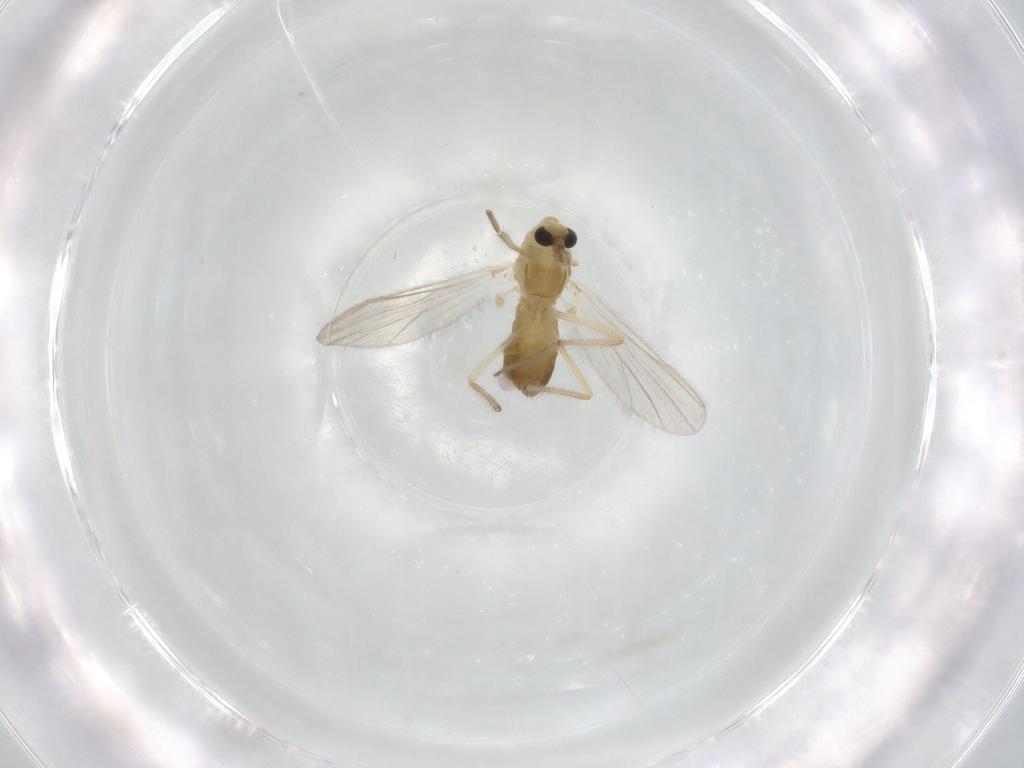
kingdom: Animalia
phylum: Arthropoda
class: Insecta
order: Diptera
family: Chironomidae
